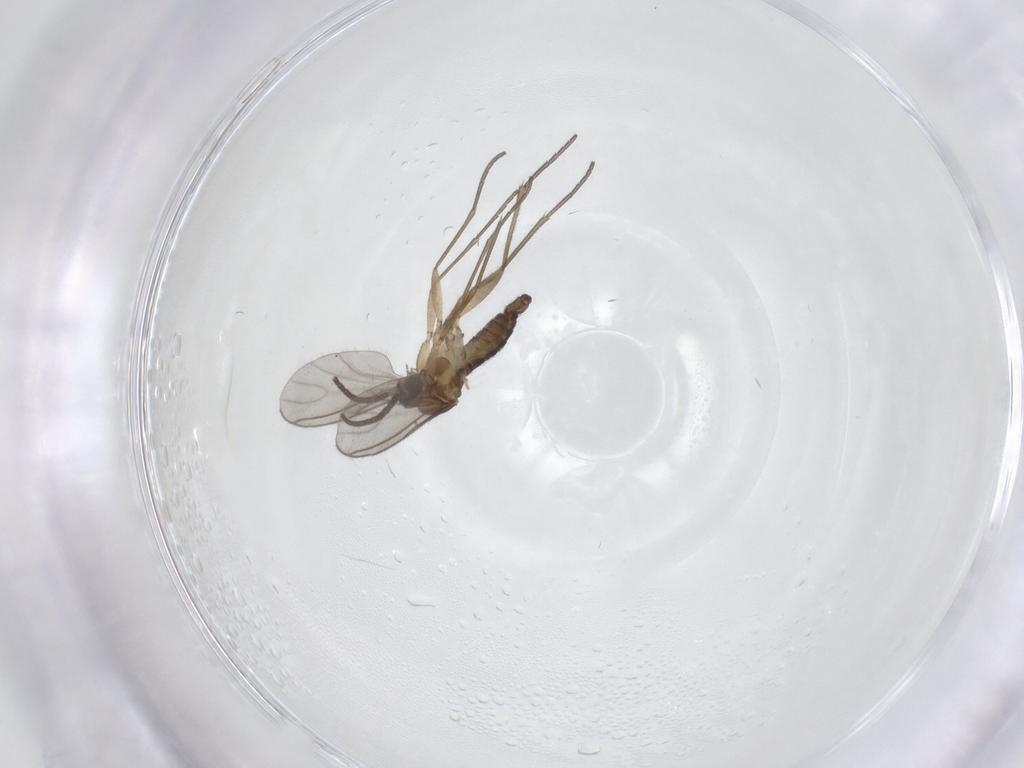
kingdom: Animalia
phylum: Arthropoda
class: Insecta
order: Diptera
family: Sciaridae
